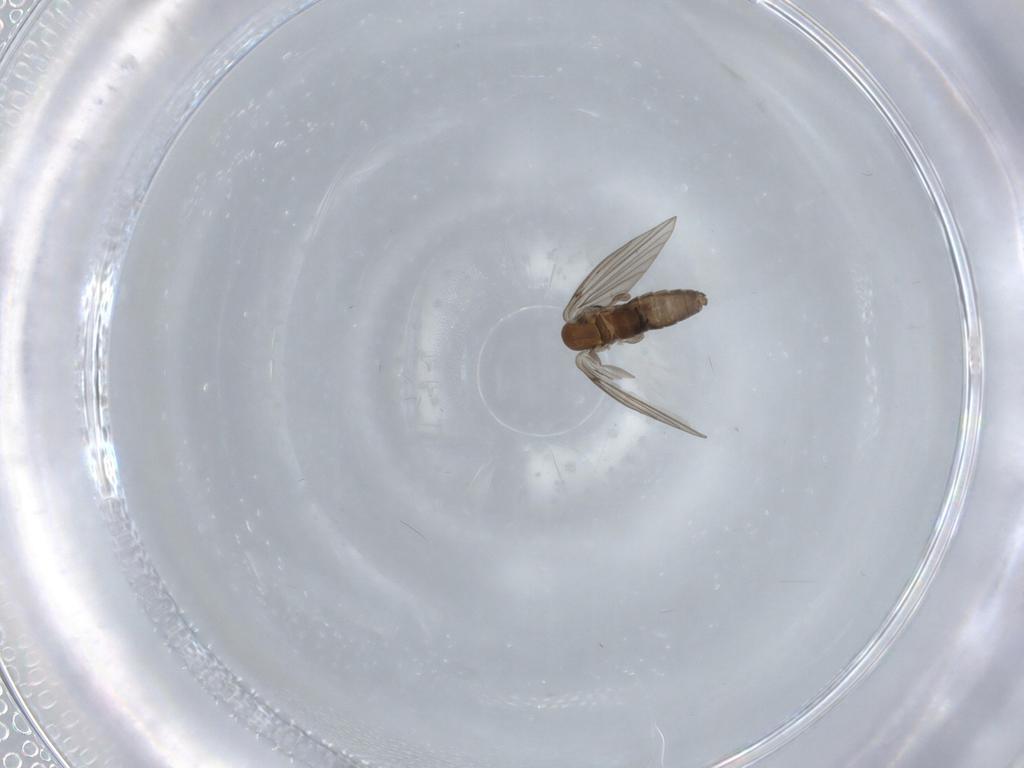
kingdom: Animalia
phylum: Arthropoda
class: Insecta
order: Diptera
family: Psychodidae
